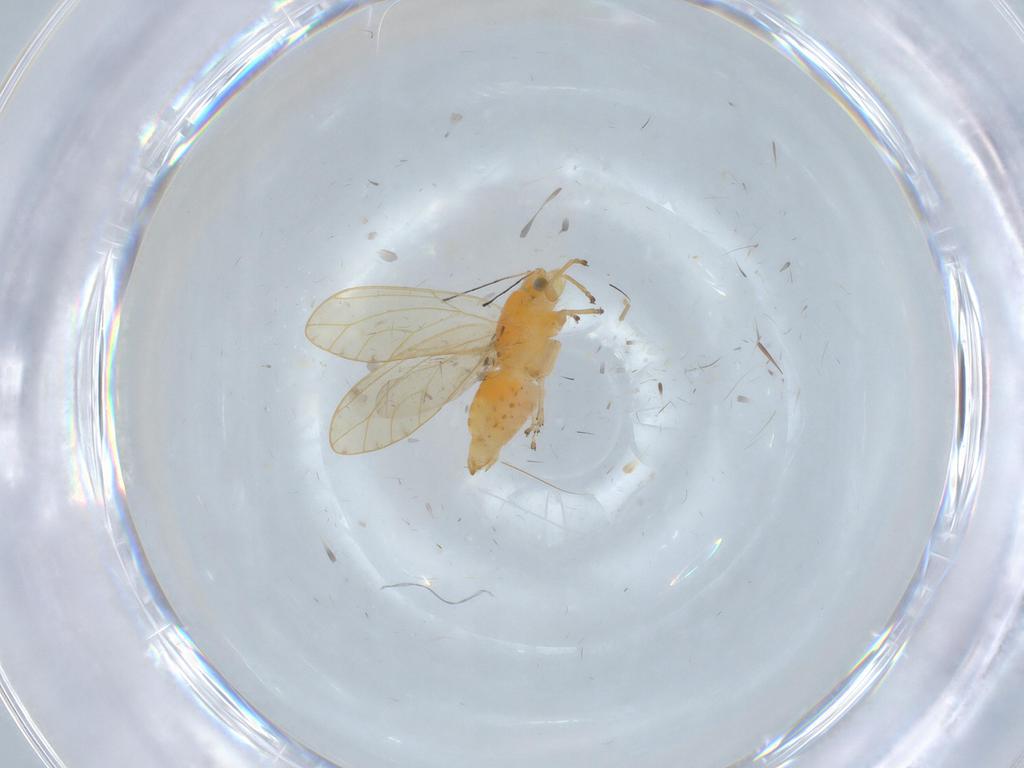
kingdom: Animalia
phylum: Arthropoda
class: Insecta
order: Hemiptera
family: Triozidae
